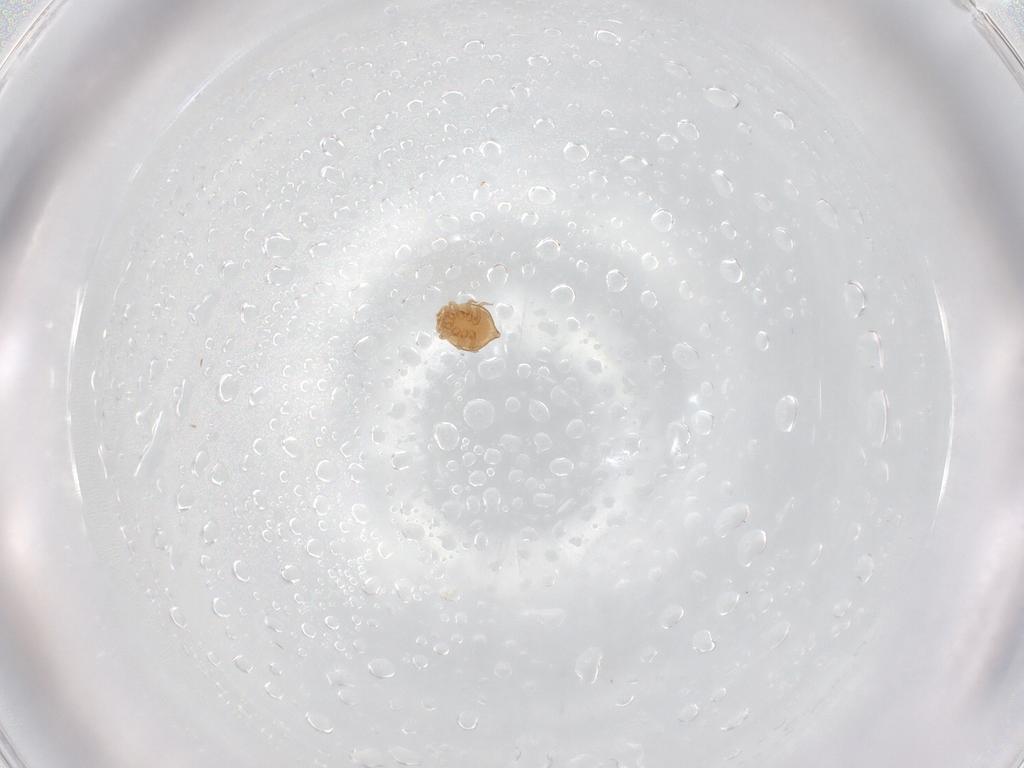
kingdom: Animalia
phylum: Arthropoda
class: Arachnida
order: Mesostigmata
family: Polyaspididae
